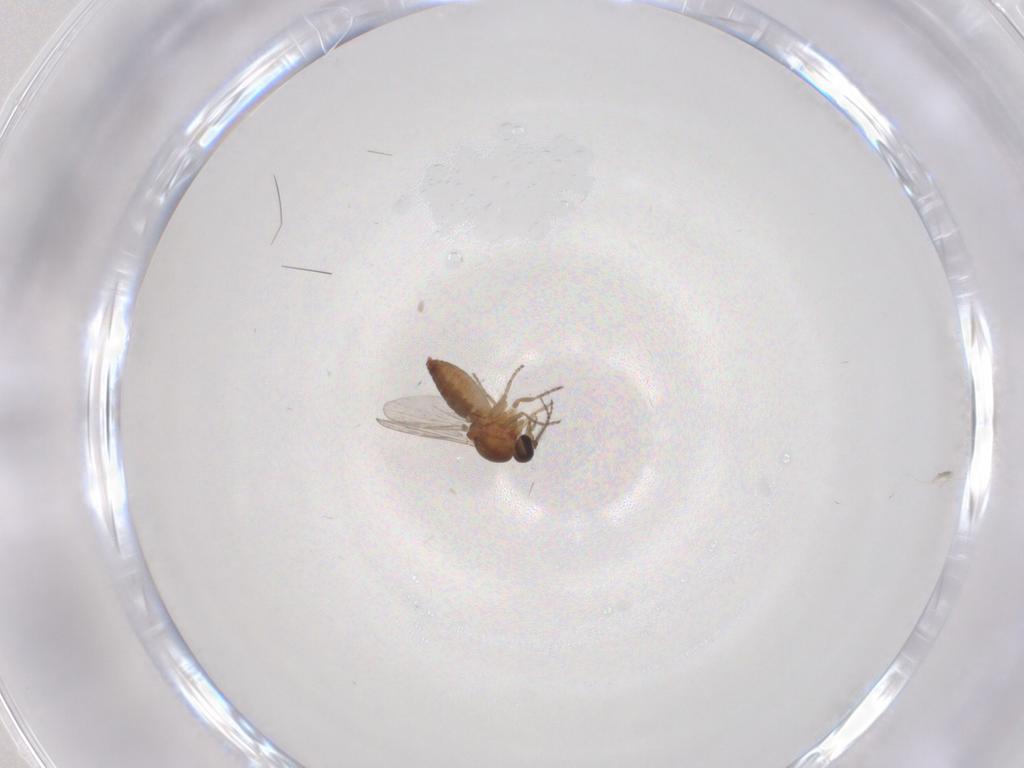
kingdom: Animalia
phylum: Arthropoda
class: Insecta
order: Diptera
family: Ceratopogonidae
